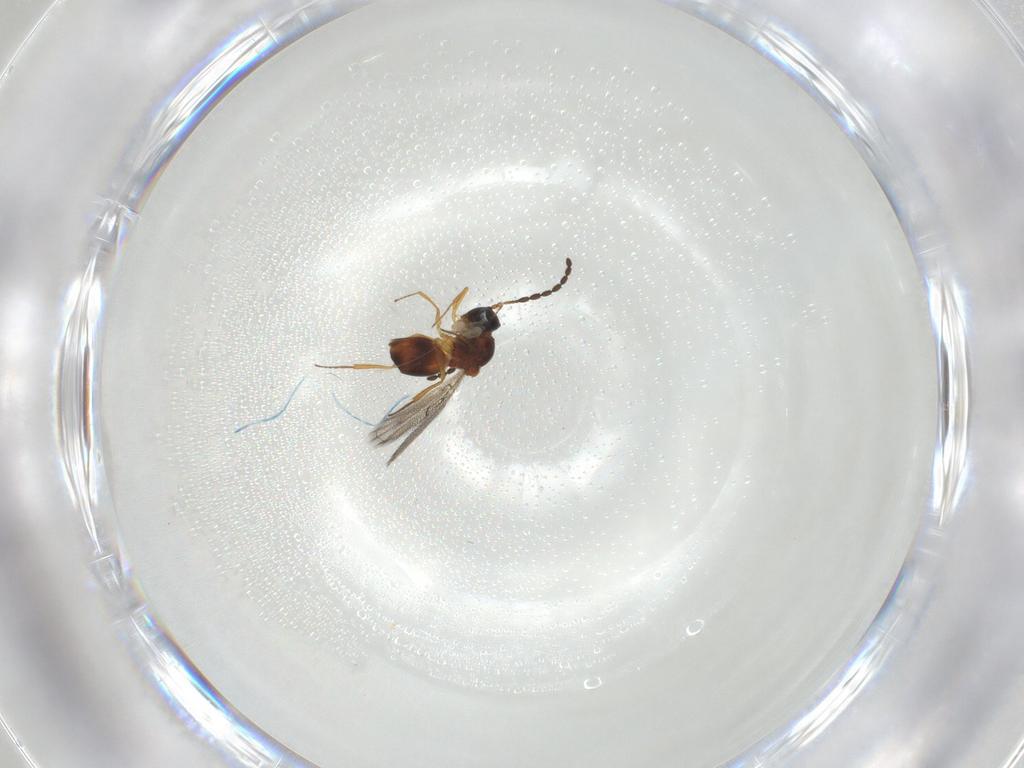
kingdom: Animalia
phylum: Arthropoda
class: Insecta
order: Hymenoptera
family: Figitidae
